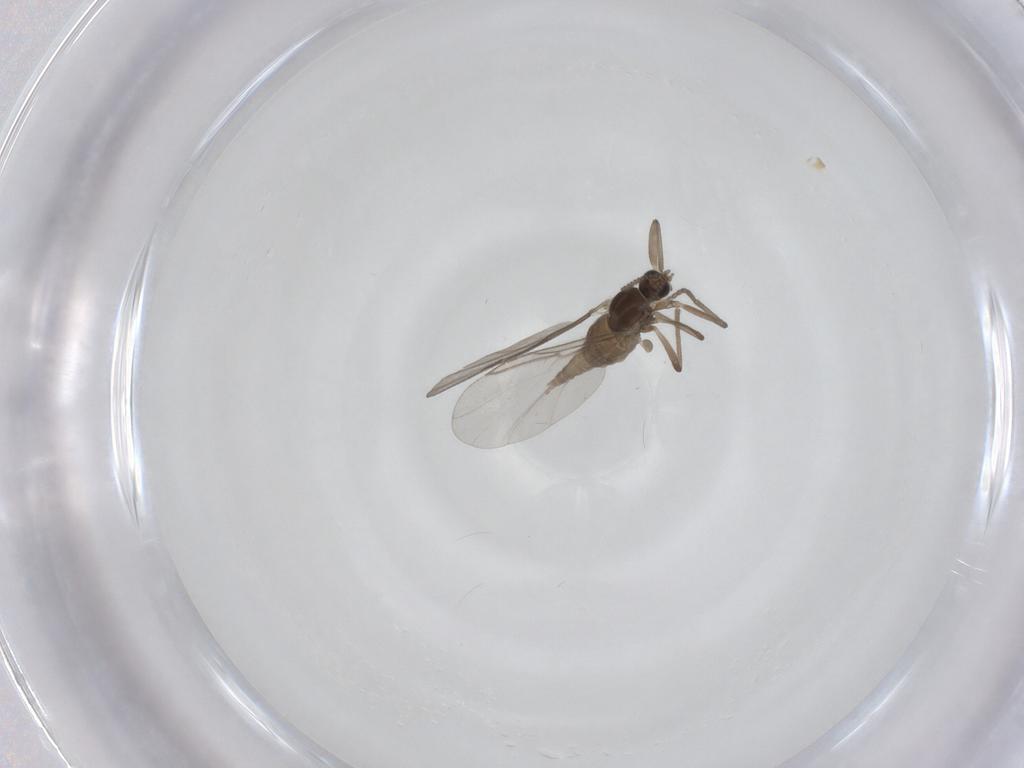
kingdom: Animalia
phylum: Arthropoda
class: Insecta
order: Diptera
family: Cecidomyiidae
